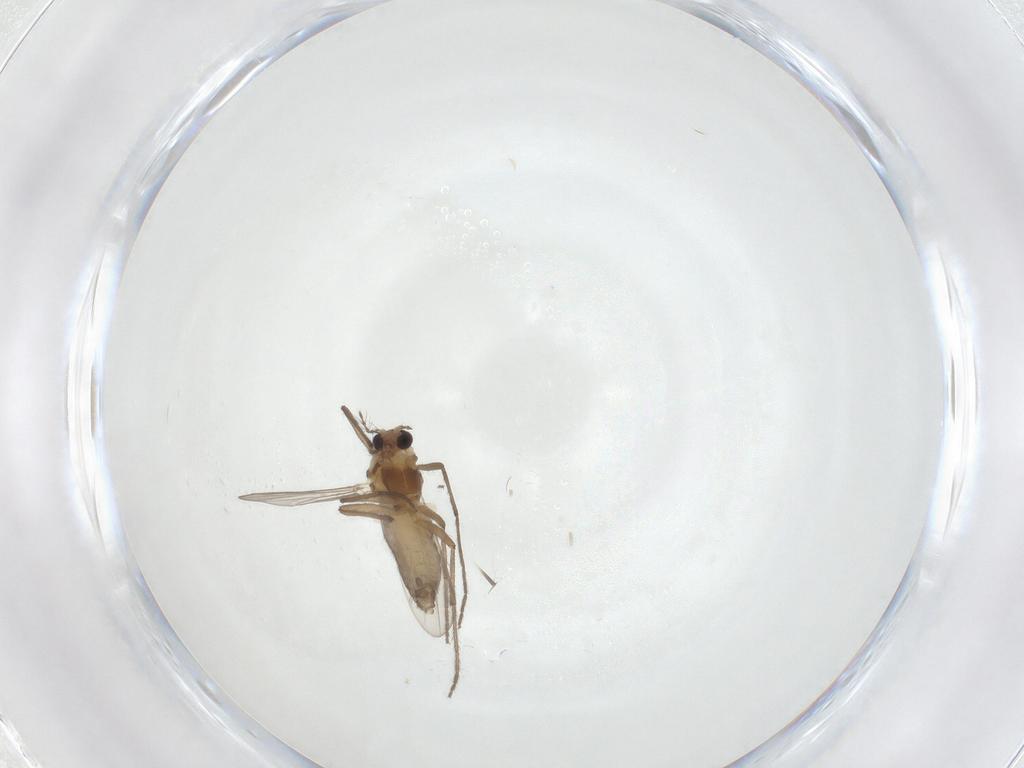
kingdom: Animalia
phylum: Arthropoda
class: Insecta
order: Diptera
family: Chironomidae
